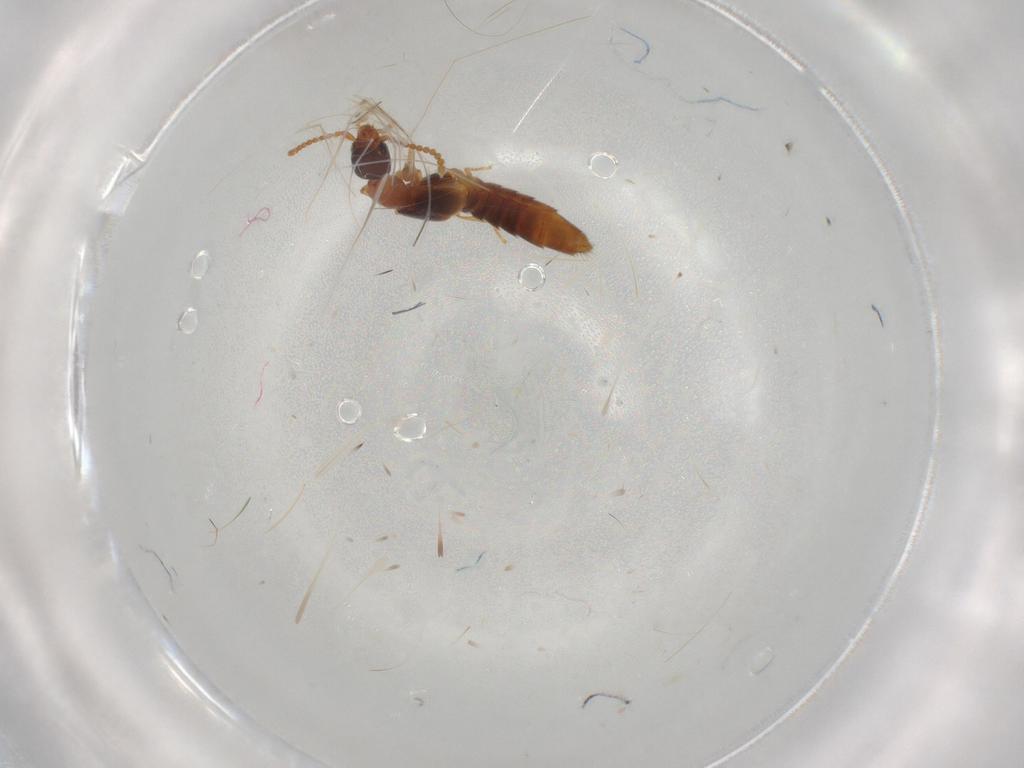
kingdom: Animalia
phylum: Arthropoda
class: Insecta
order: Coleoptera
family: Staphylinidae
